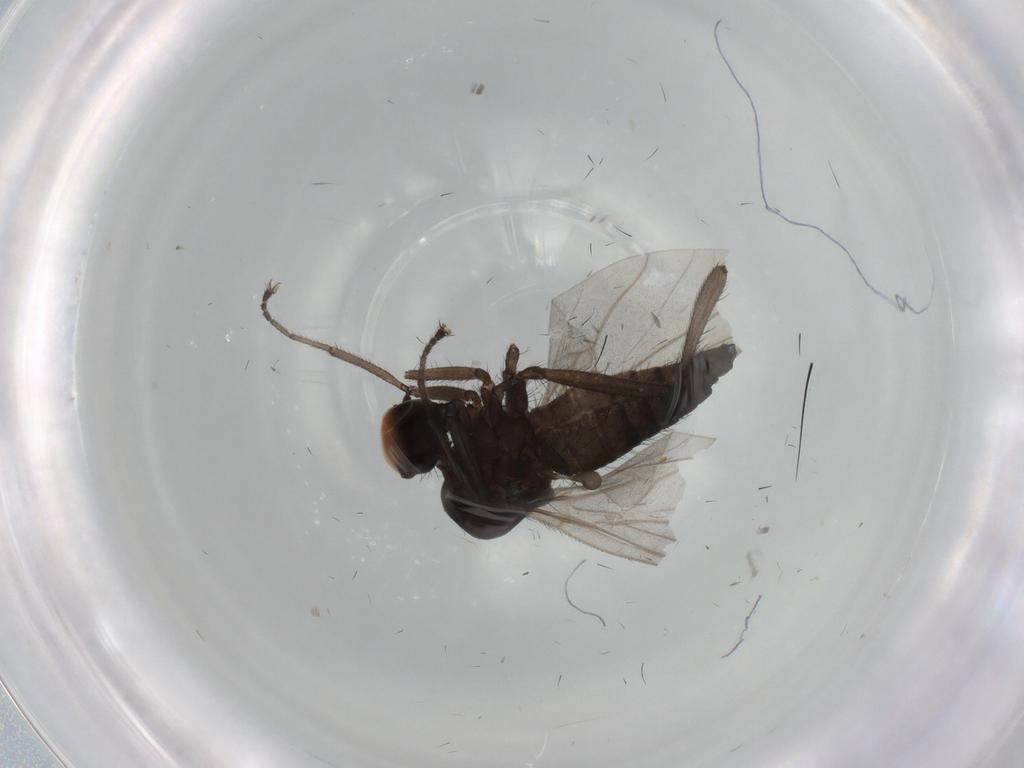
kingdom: Animalia
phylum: Arthropoda
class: Insecta
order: Diptera
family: Hybotidae
